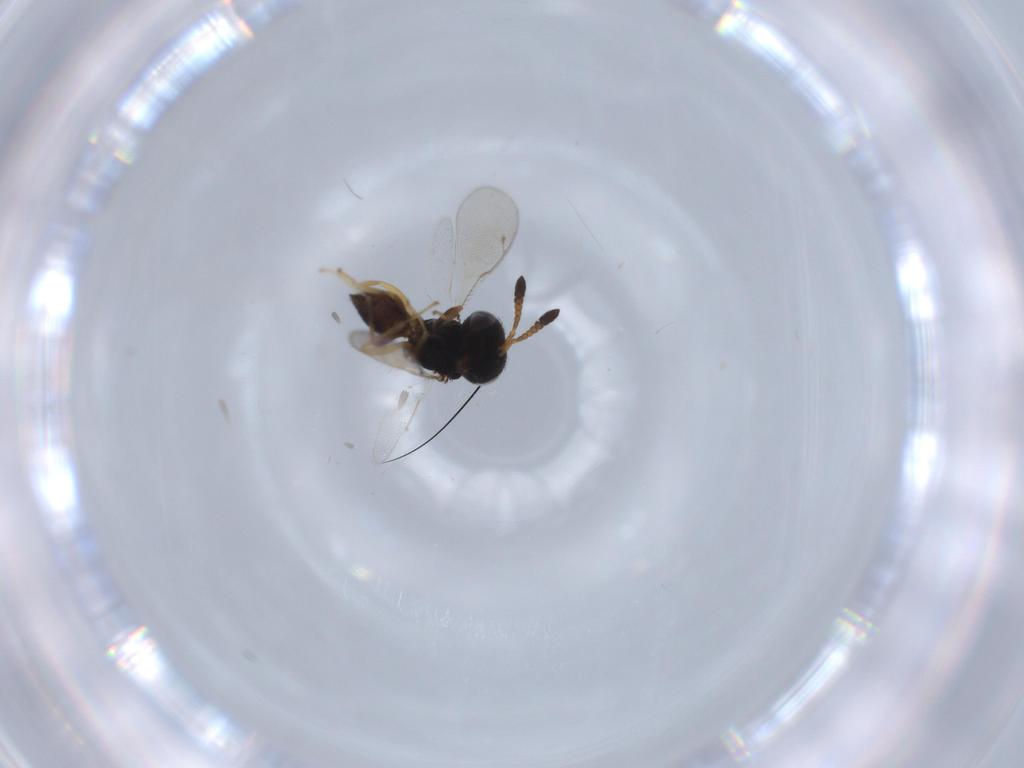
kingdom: Animalia
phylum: Arthropoda
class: Insecta
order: Hymenoptera
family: Pteromalidae
